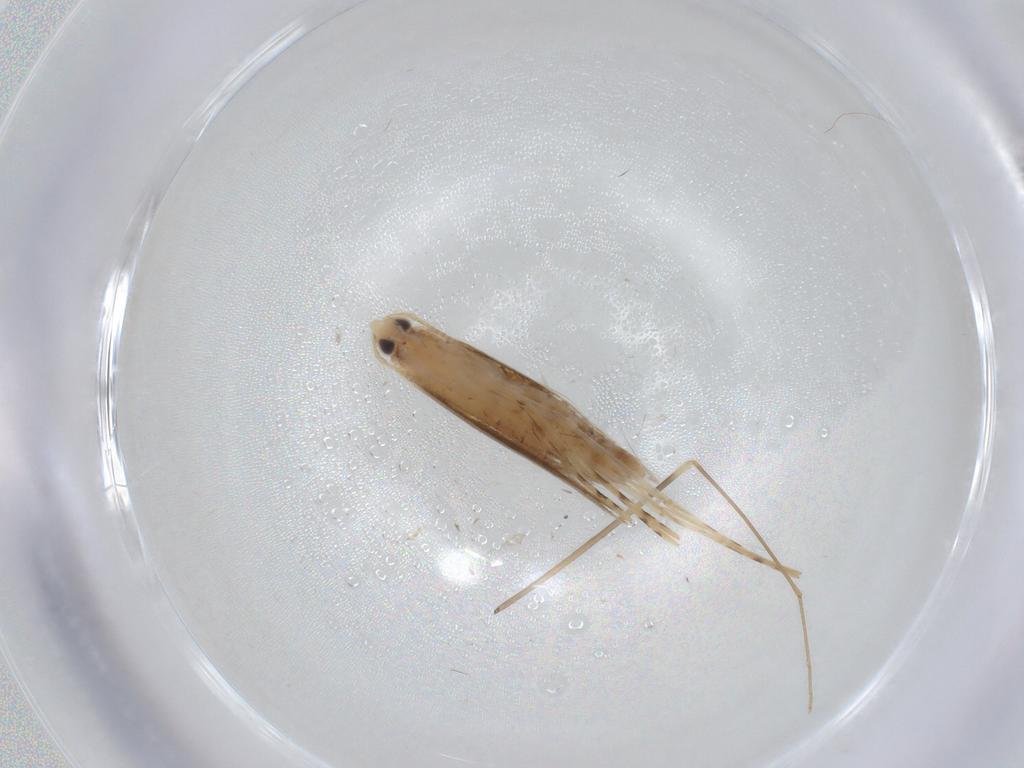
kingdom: Animalia
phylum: Arthropoda
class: Insecta
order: Lepidoptera
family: Lyonetiidae
